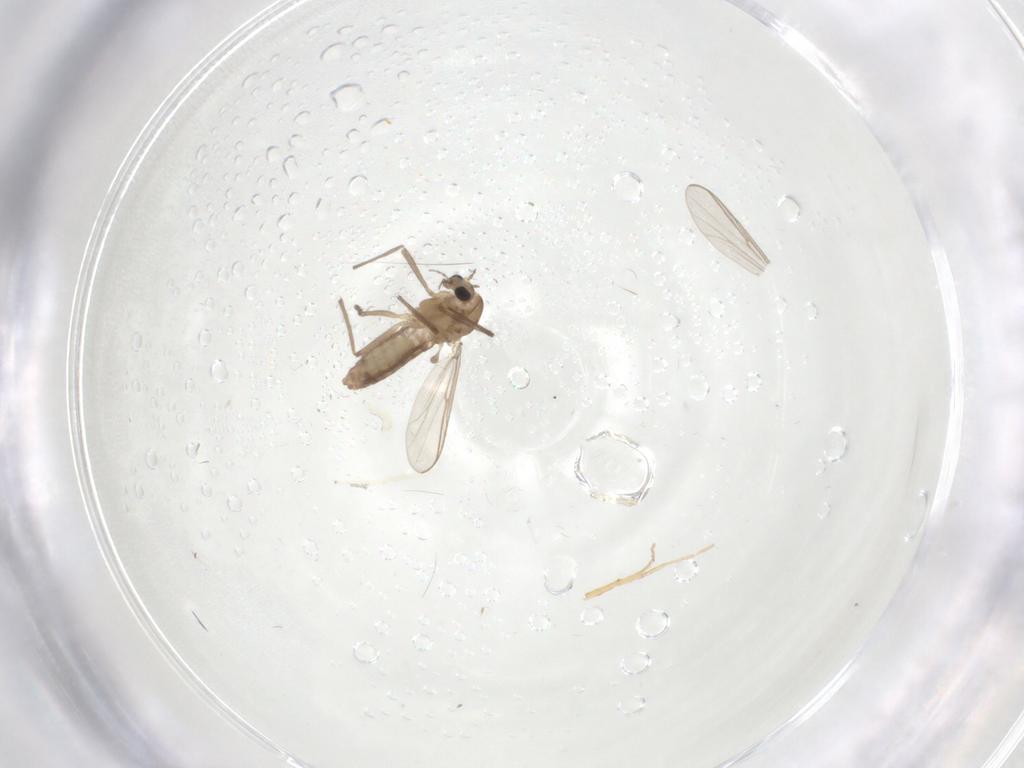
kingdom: Animalia
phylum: Arthropoda
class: Insecta
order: Diptera
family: Chironomidae
